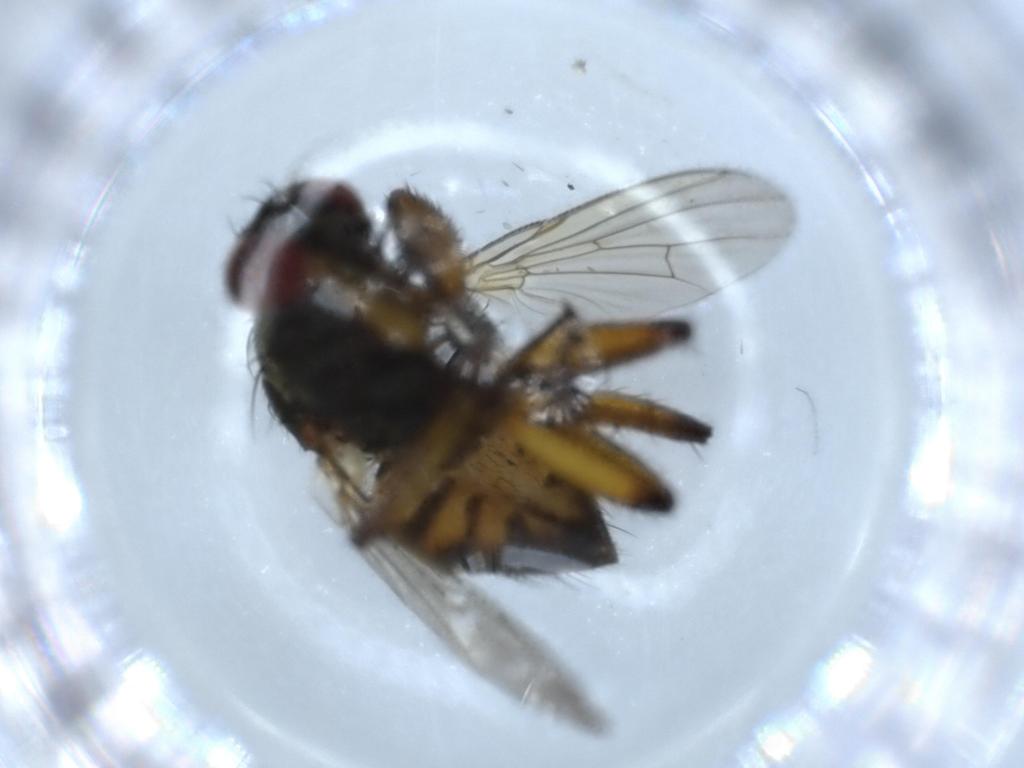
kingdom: Animalia
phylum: Arthropoda
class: Insecta
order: Diptera
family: Muscidae
